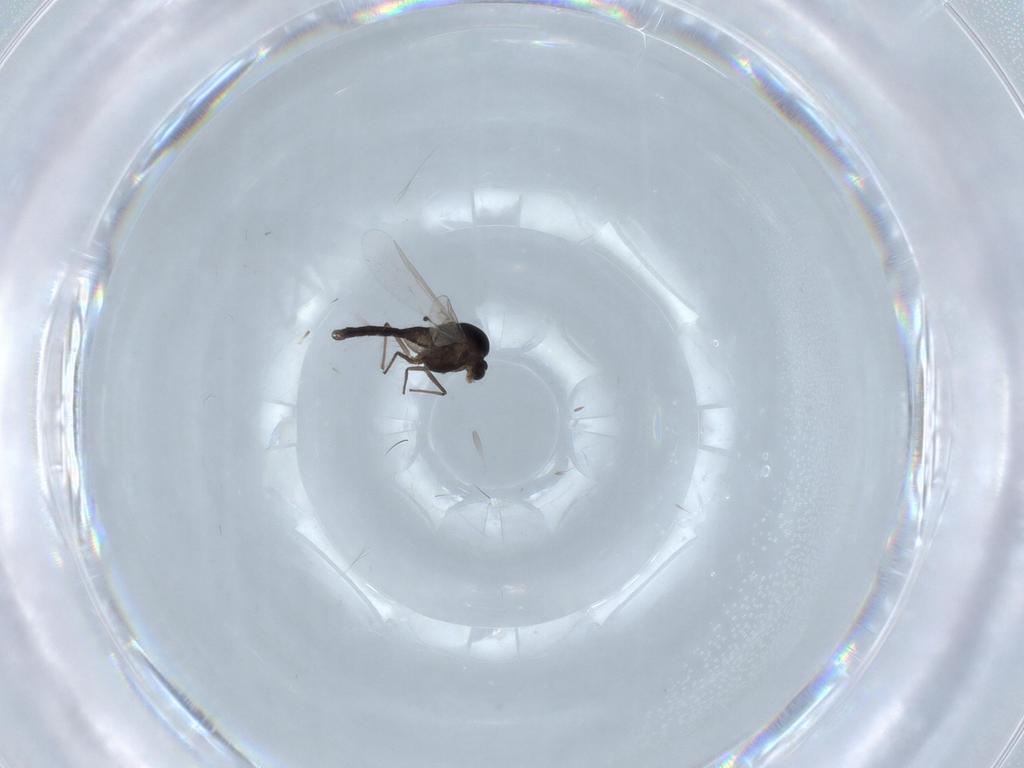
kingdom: Animalia
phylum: Arthropoda
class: Insecta
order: Diptera
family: Chironomidae
